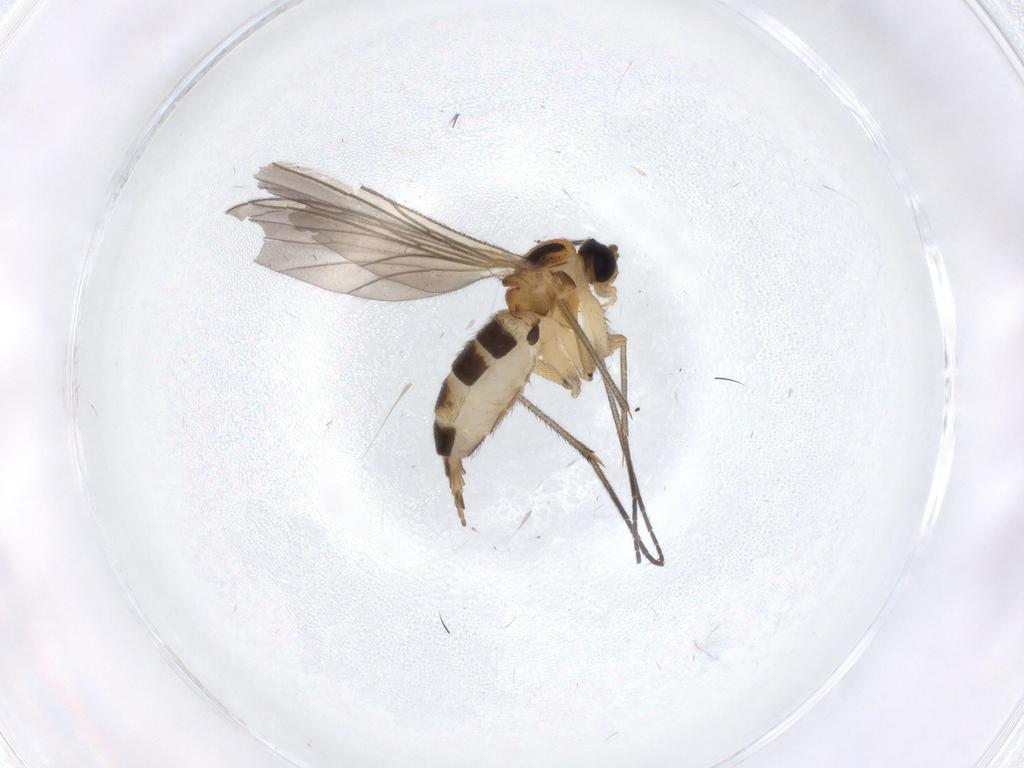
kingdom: Animalia
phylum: Arthropoda
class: Insecta
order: Diptera
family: Ceratopogonidae
